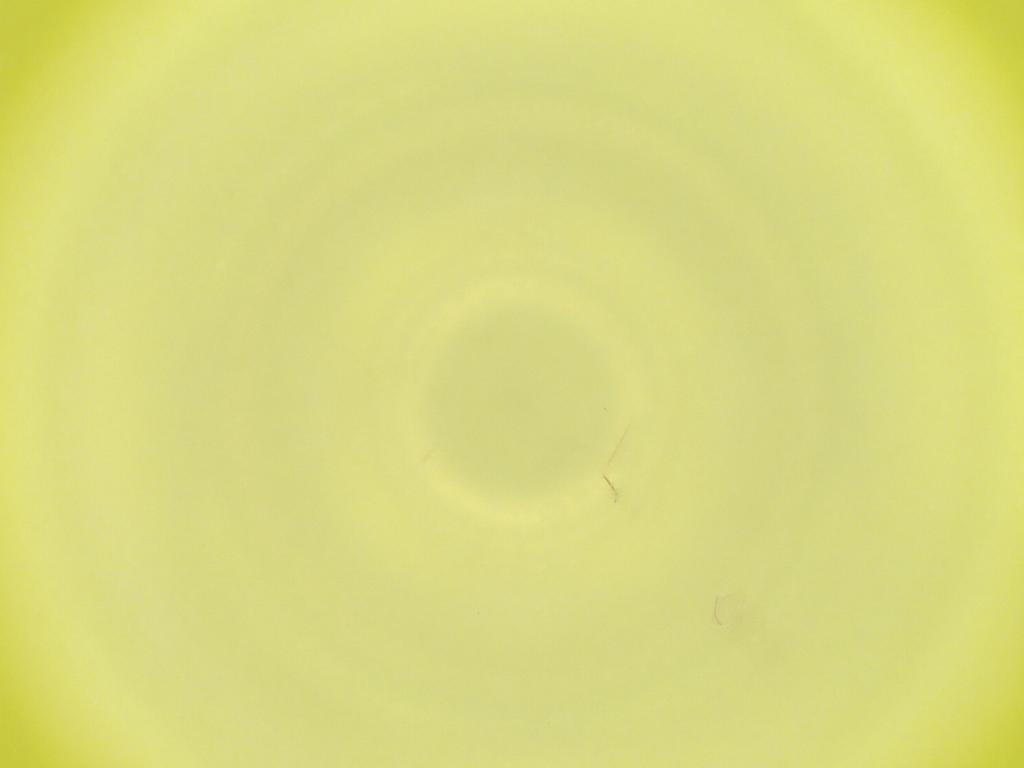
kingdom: Animalia
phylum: Arthropoda
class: Insecta
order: Diptera
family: Cecidomyiidae
